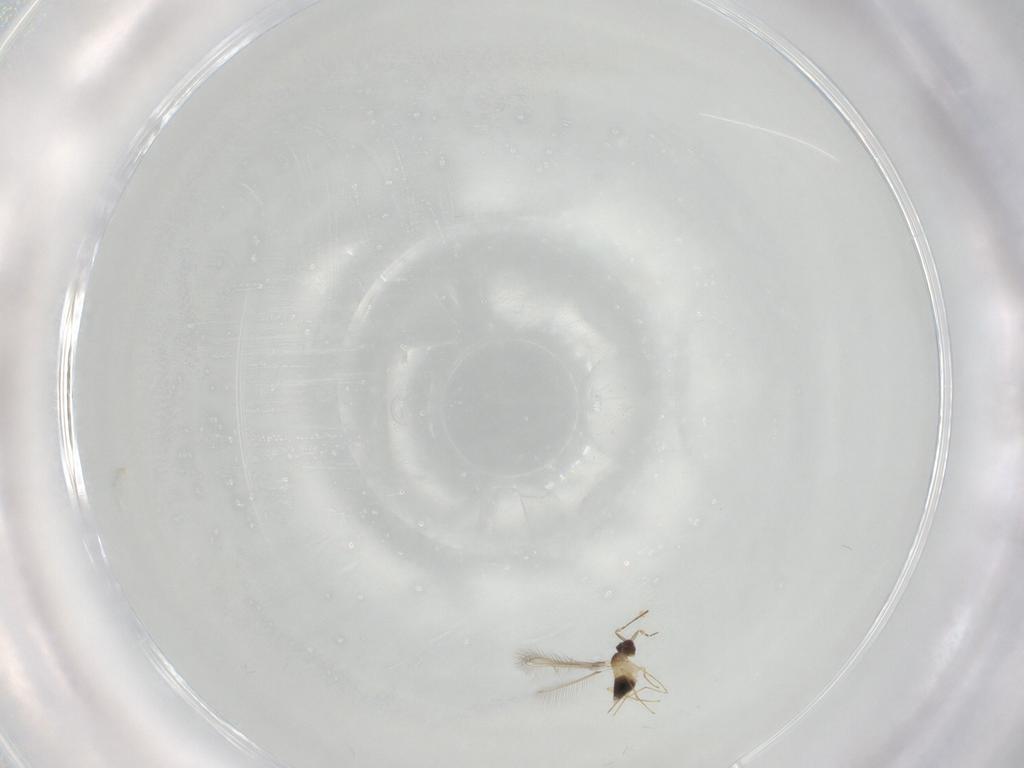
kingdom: Animalia
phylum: Arthropoda
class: Insecta
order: Hymenoptera
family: Mymaridae
